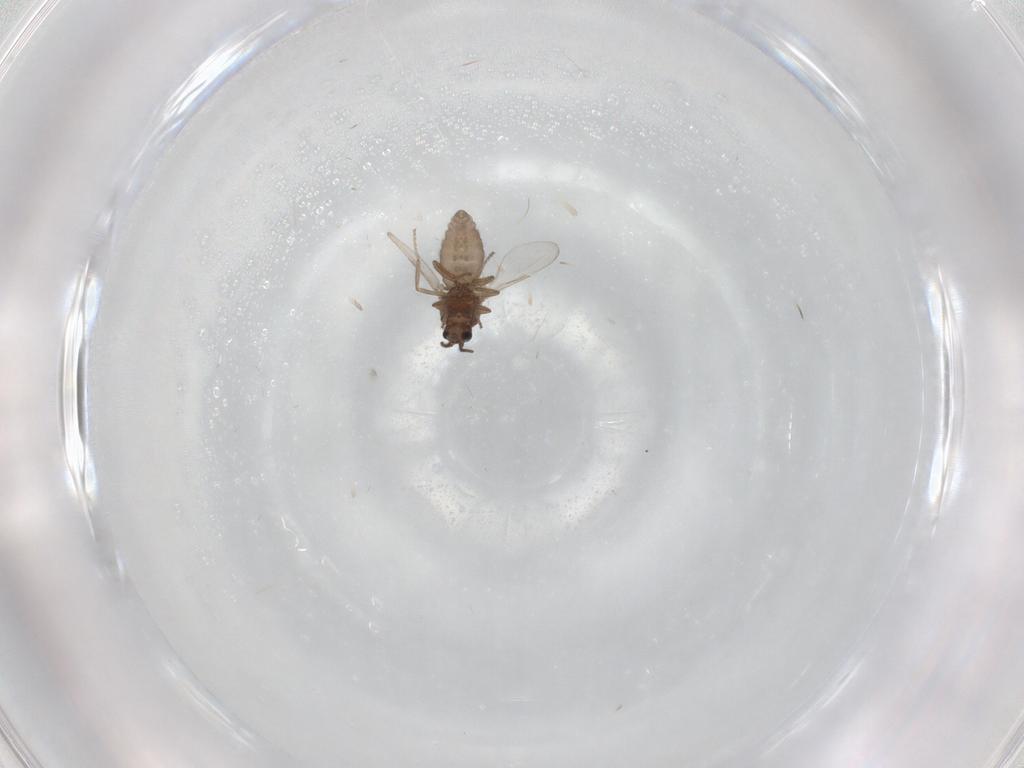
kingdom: Animalia
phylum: Arthropoda
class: Insecta
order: Diptera
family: Ceratopogonidae
